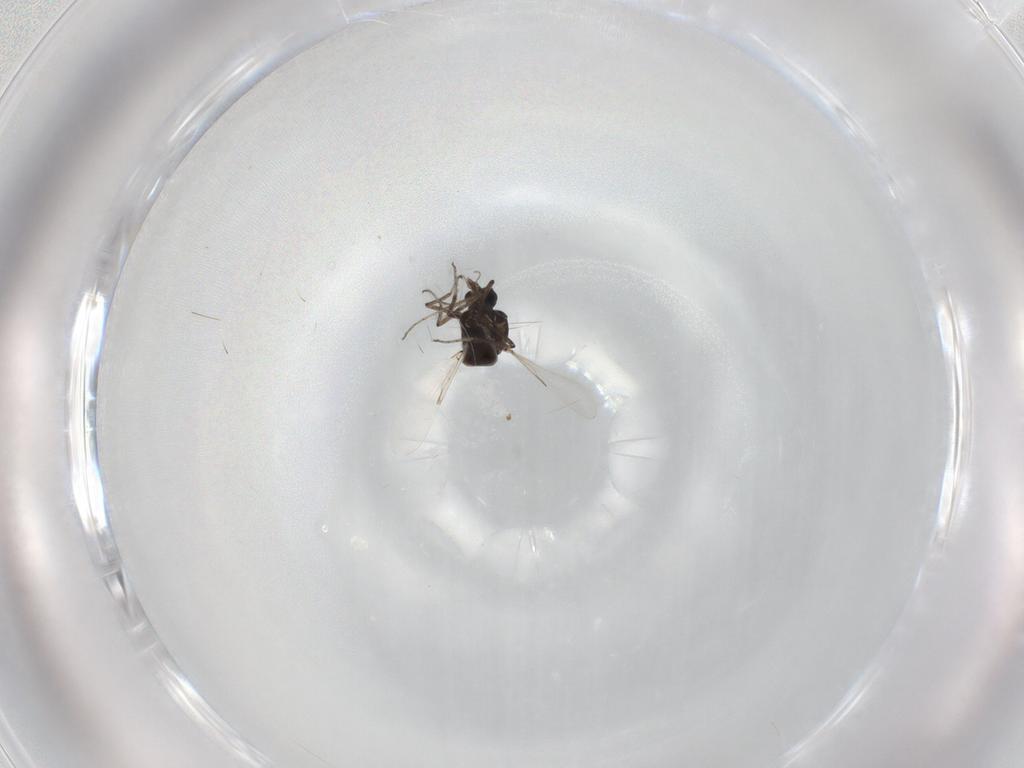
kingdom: Animalia
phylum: Arthropoda
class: Insecta
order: Diptera
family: Ceratopogonidae
